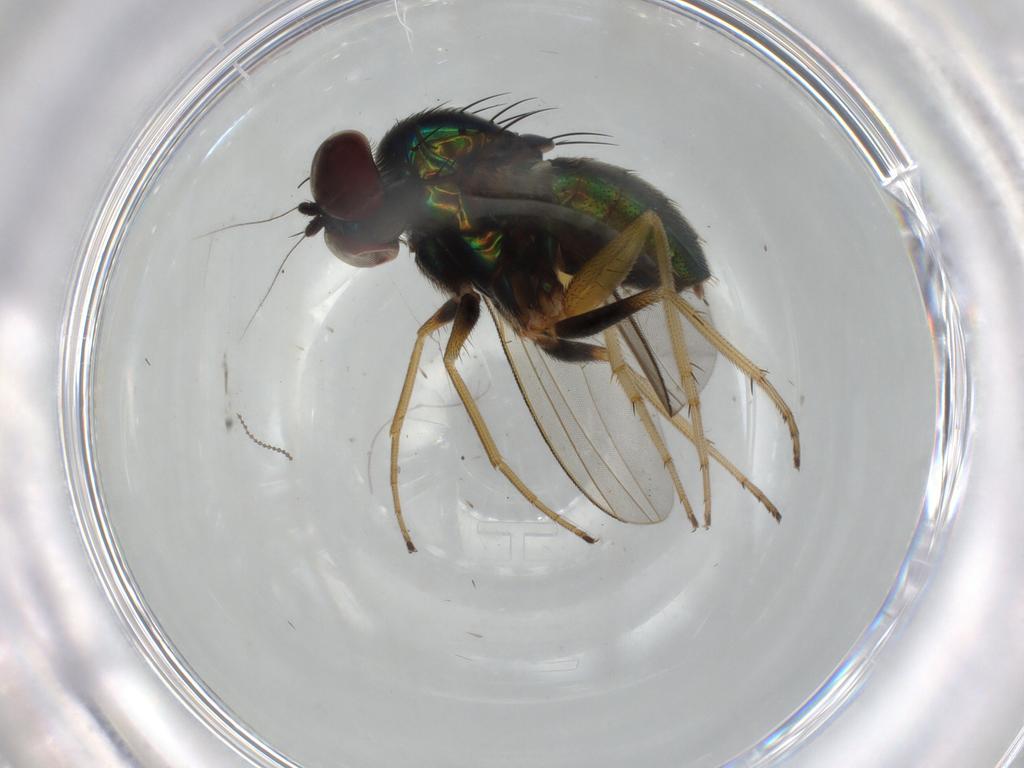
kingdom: Animalia
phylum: Arthropoda
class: Insecta
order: Diptera
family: Dolichopodidae
